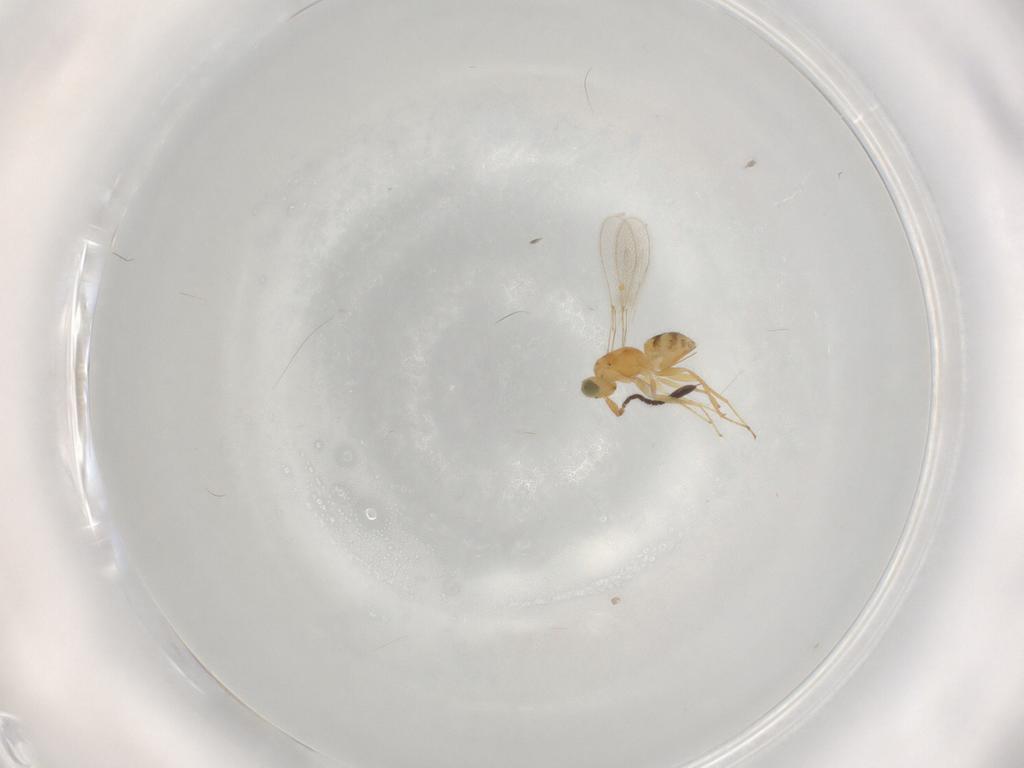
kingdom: Animalia
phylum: Arthropoda
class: Insecta
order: Hymenoptera
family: Scelionidae
